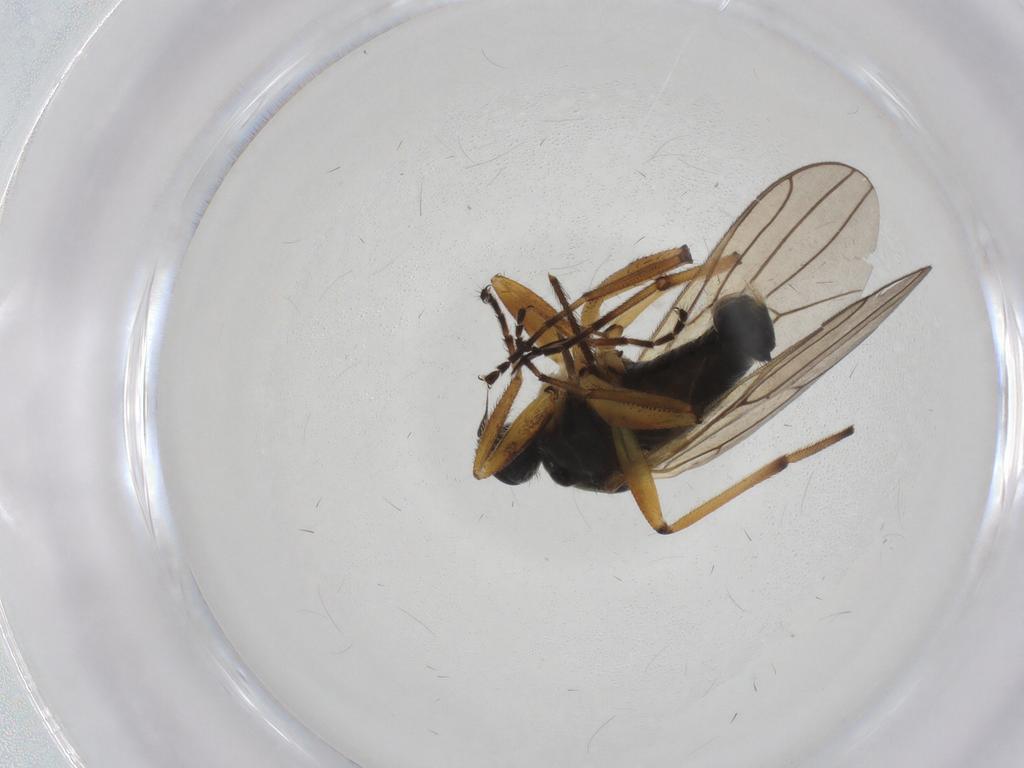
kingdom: Animalia
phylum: Arthropoda
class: Insecta
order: Diptera
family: Hybotidae
